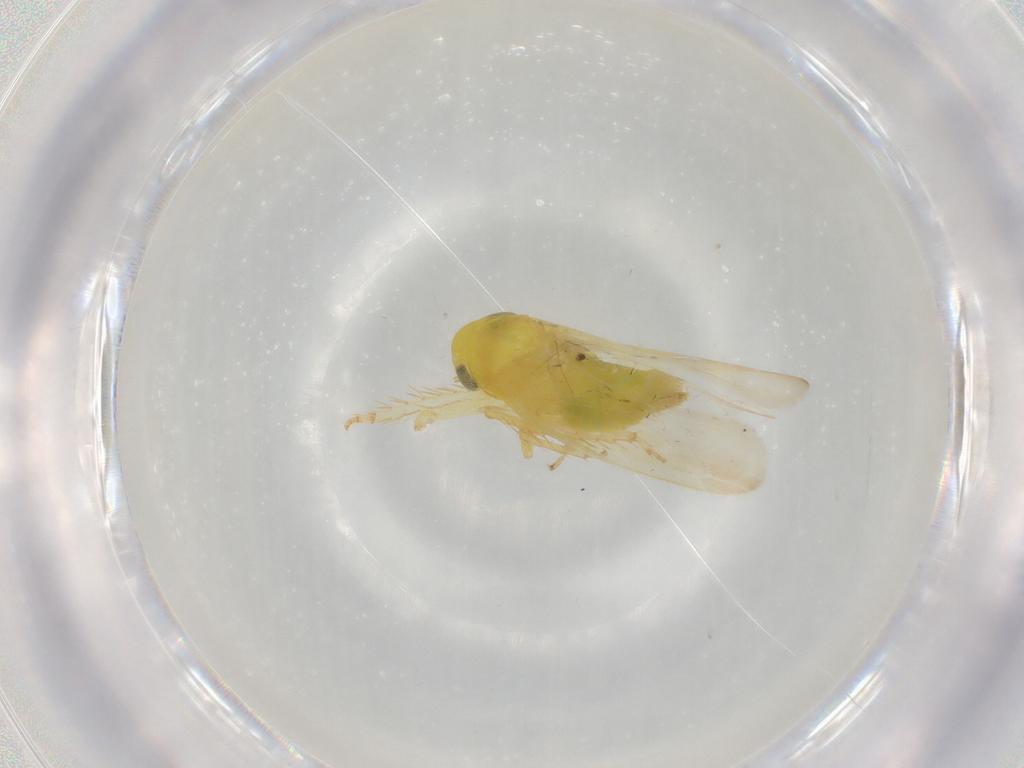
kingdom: Animalia
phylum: Arthropoda
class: Insecta
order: Hemiptera
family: Cicadellidae
